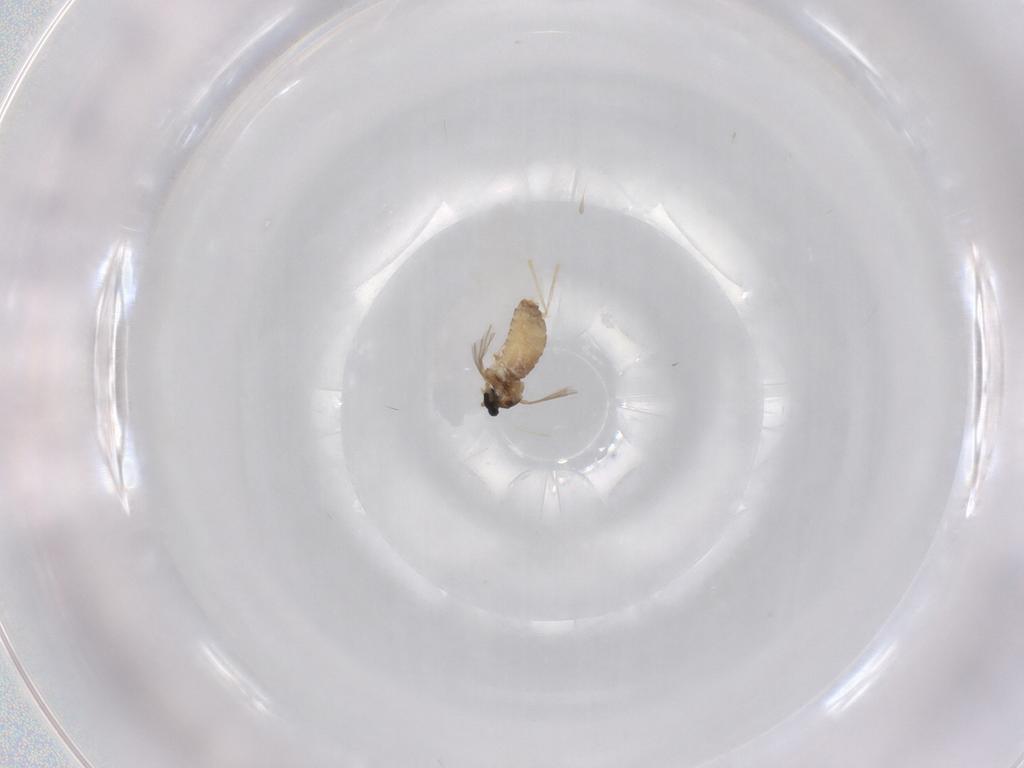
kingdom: Animalia
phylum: Arthropoda
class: Insecta
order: Diptera
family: Cecidomyiidae
